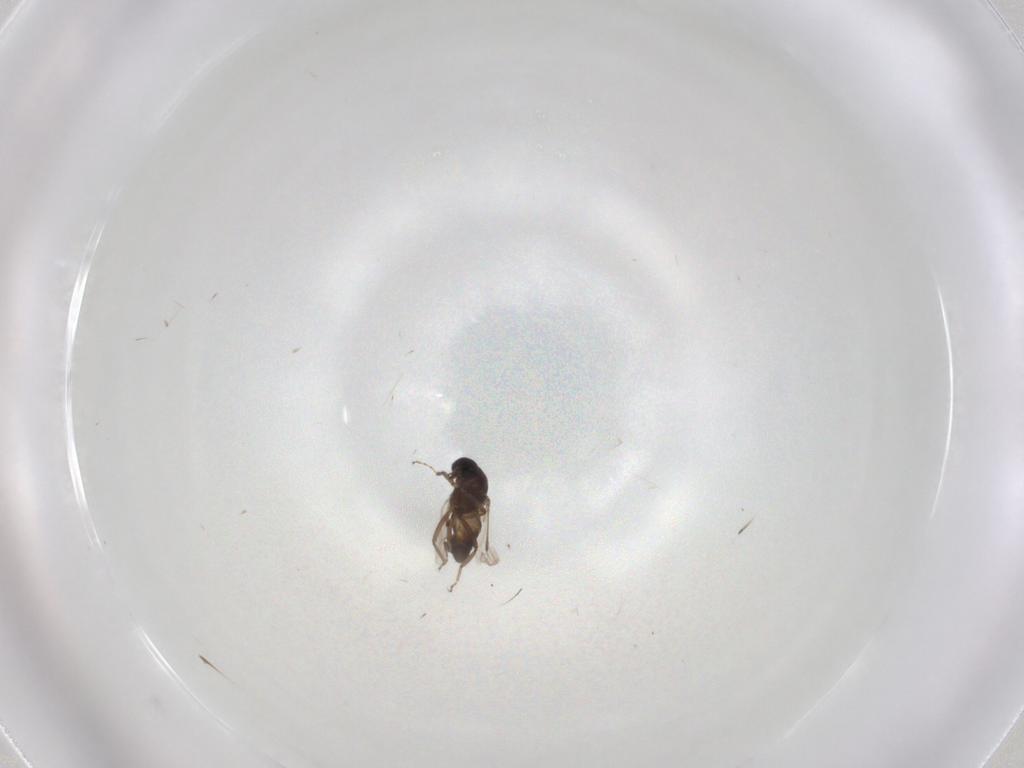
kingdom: Animalia
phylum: Arthropoda
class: Insecta
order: Diptera
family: Ceratopogonidae
